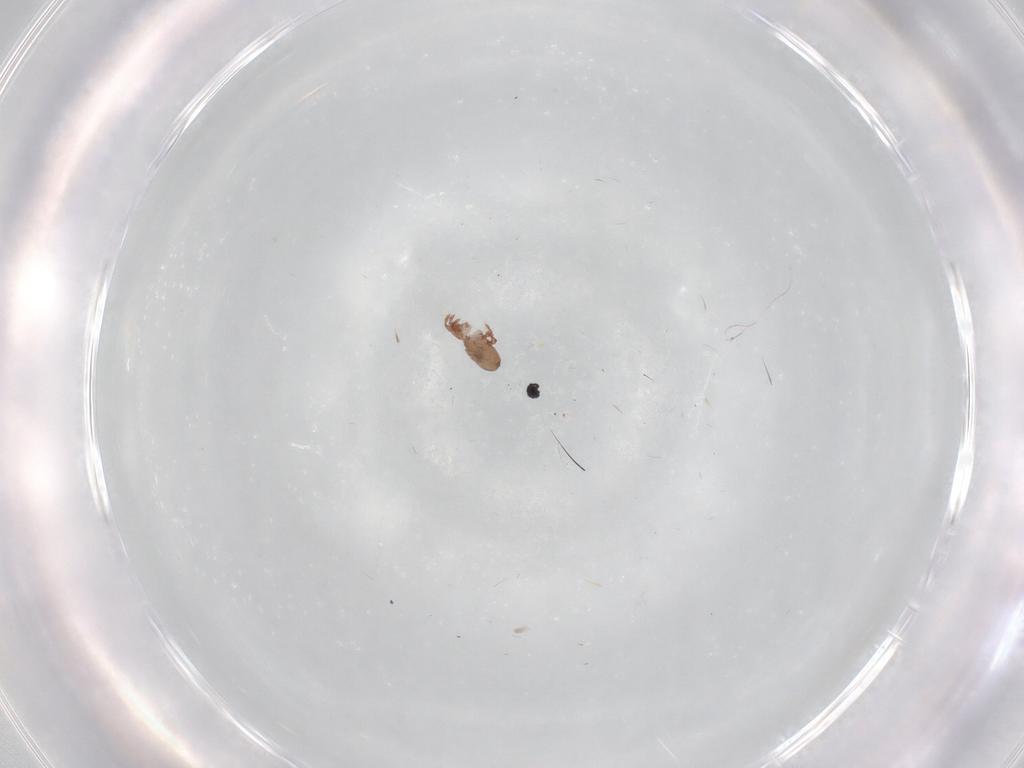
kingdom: Animalia
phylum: Arthropoda
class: Arachnida
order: Sarcoptiformes
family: Eremaeidae
